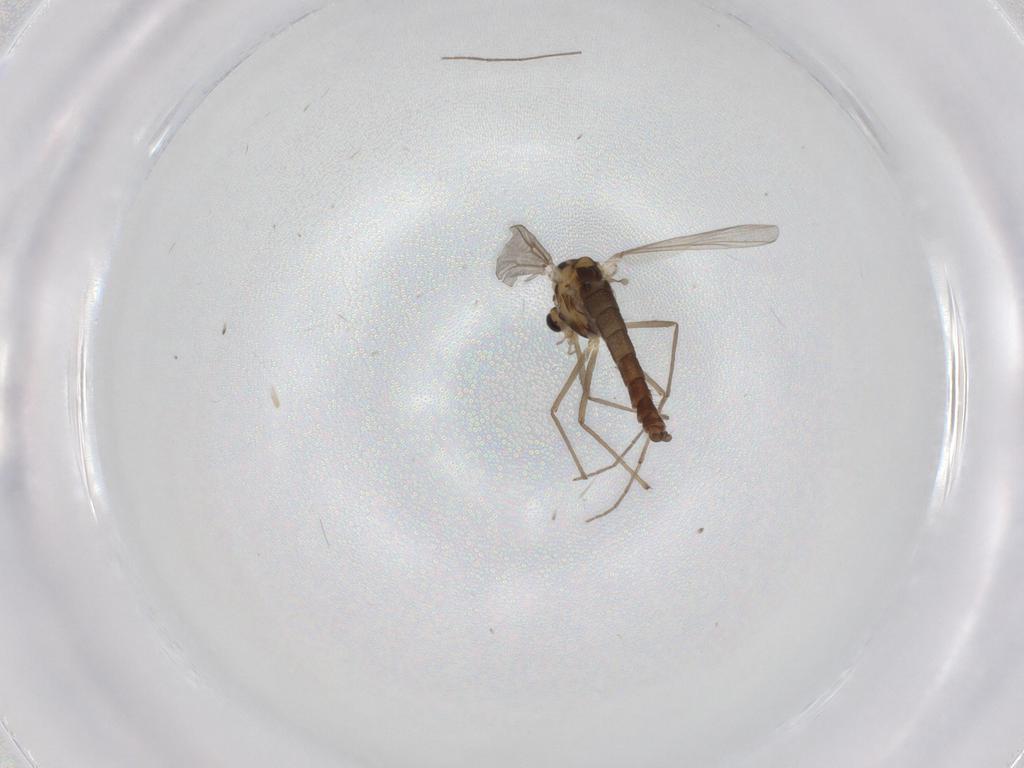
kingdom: Animalia
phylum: Arthropoda
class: Insecta
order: Diptera
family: Chironomidae
